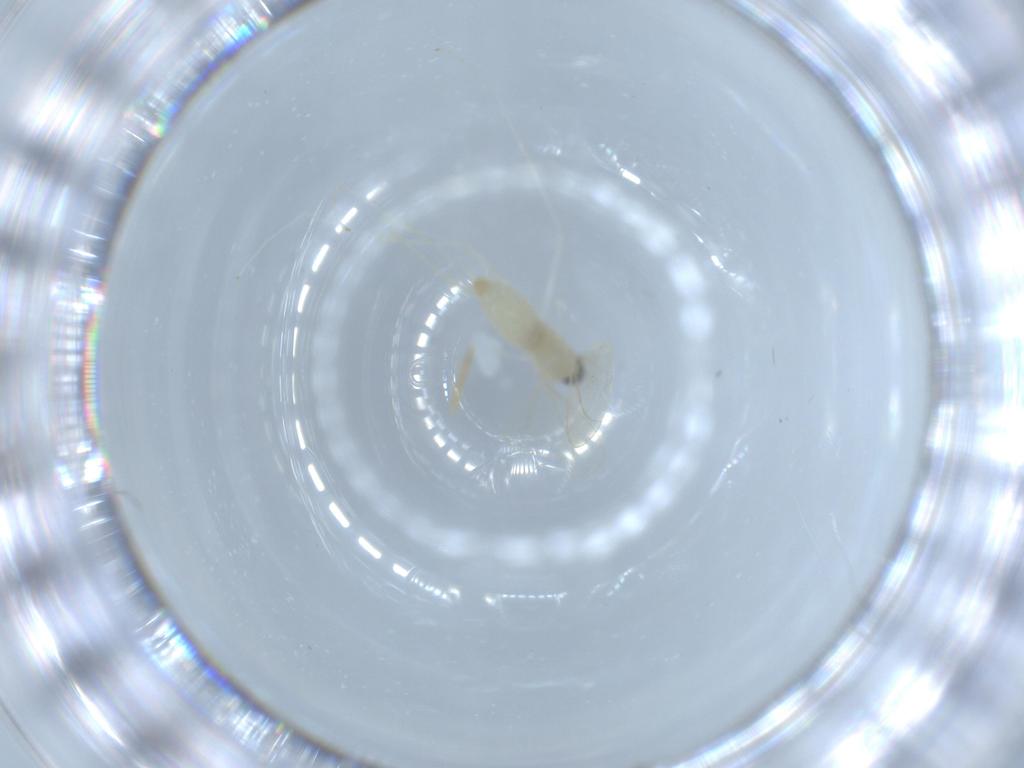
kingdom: Animalia
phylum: Arthropoda
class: Insecta
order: Diptera
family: Cecidomyiidae
